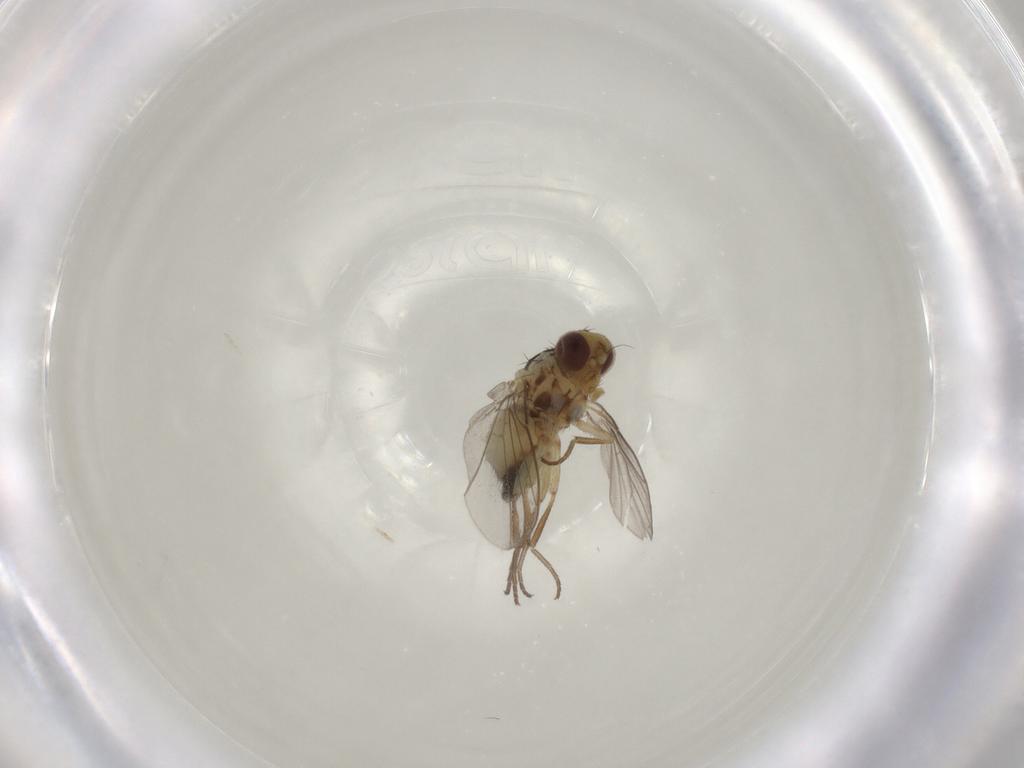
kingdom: Animalia
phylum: Arthropoda
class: Insecta
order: Diptera
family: Agromyzidae
